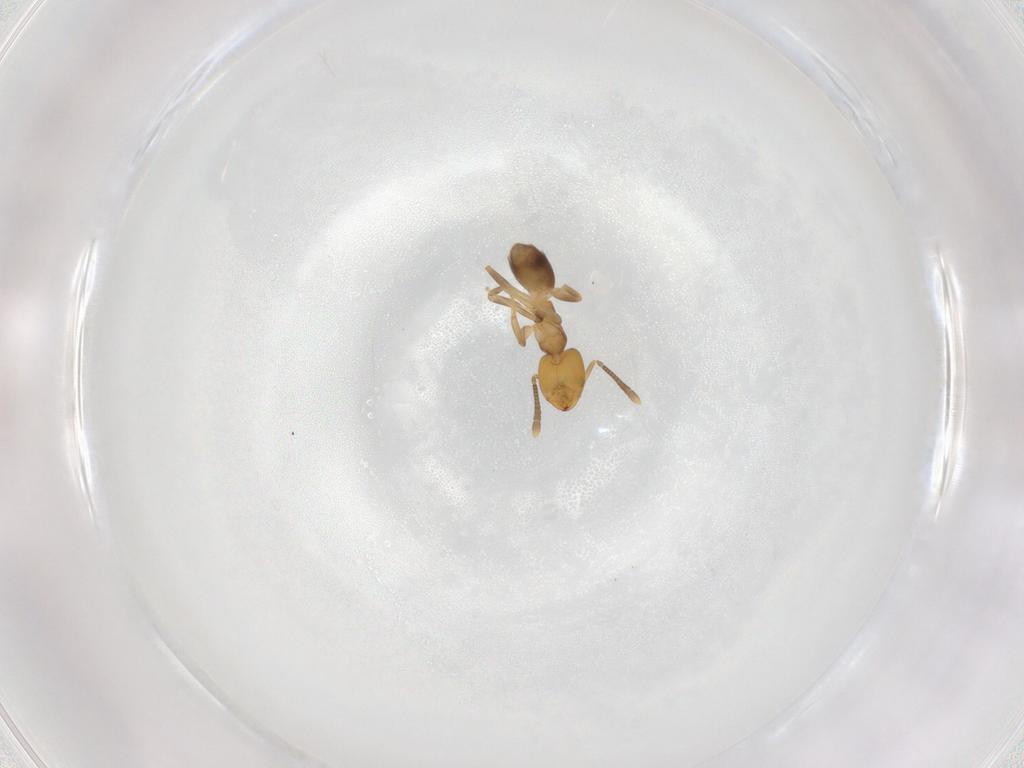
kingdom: Animalia
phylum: Arthropoda
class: Insecta
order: Hymenoptera
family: Formicidae
